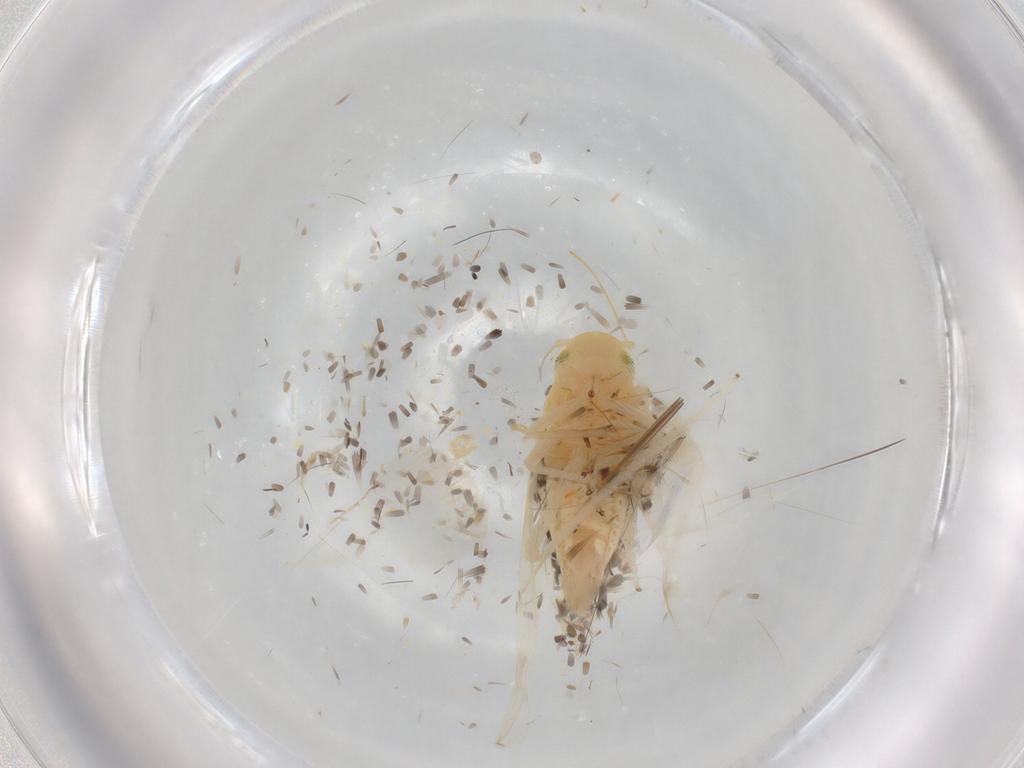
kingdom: Animalia
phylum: Arthropoda
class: Insecta
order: Hemiptera
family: Cicadellidae
